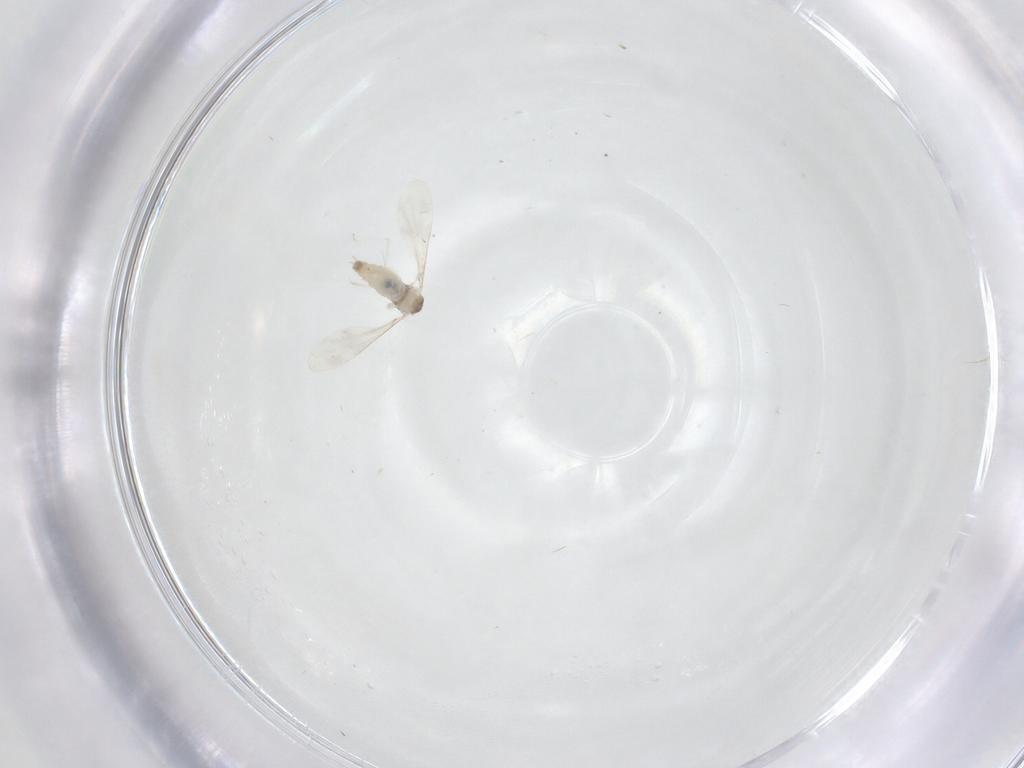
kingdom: Animalia
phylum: Arthropoda
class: Insecta
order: Diptera
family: Cecidomyiidae
